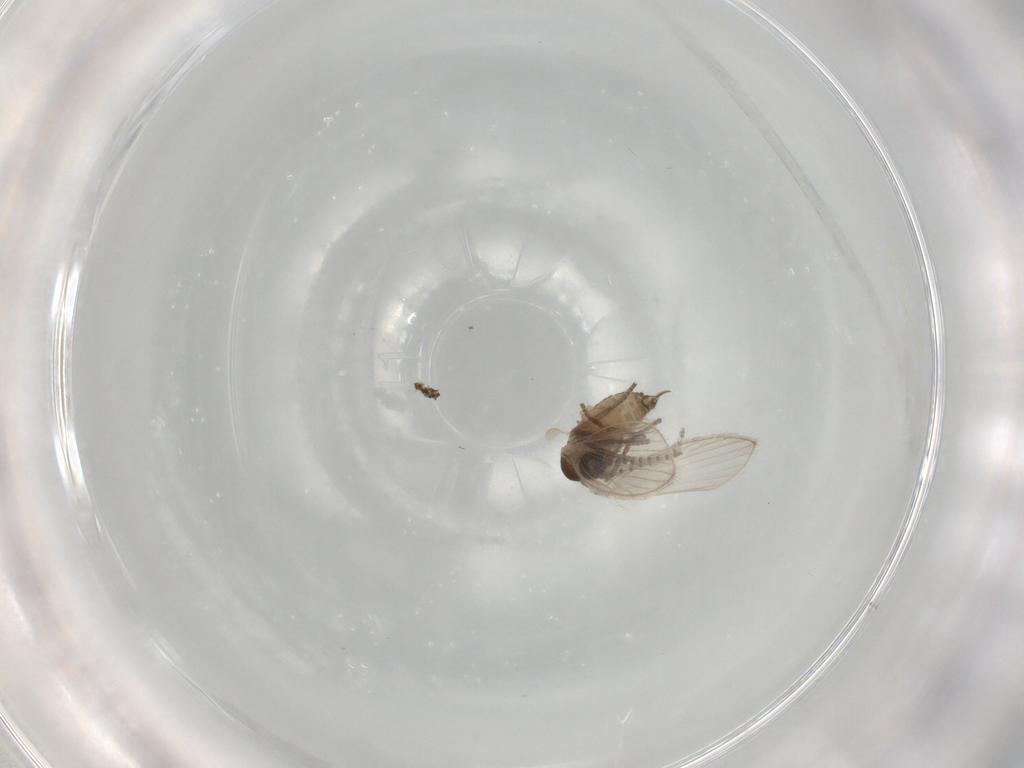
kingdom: Animalia
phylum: Arthropoda
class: Insecta
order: Diptera
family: Psychodidae
